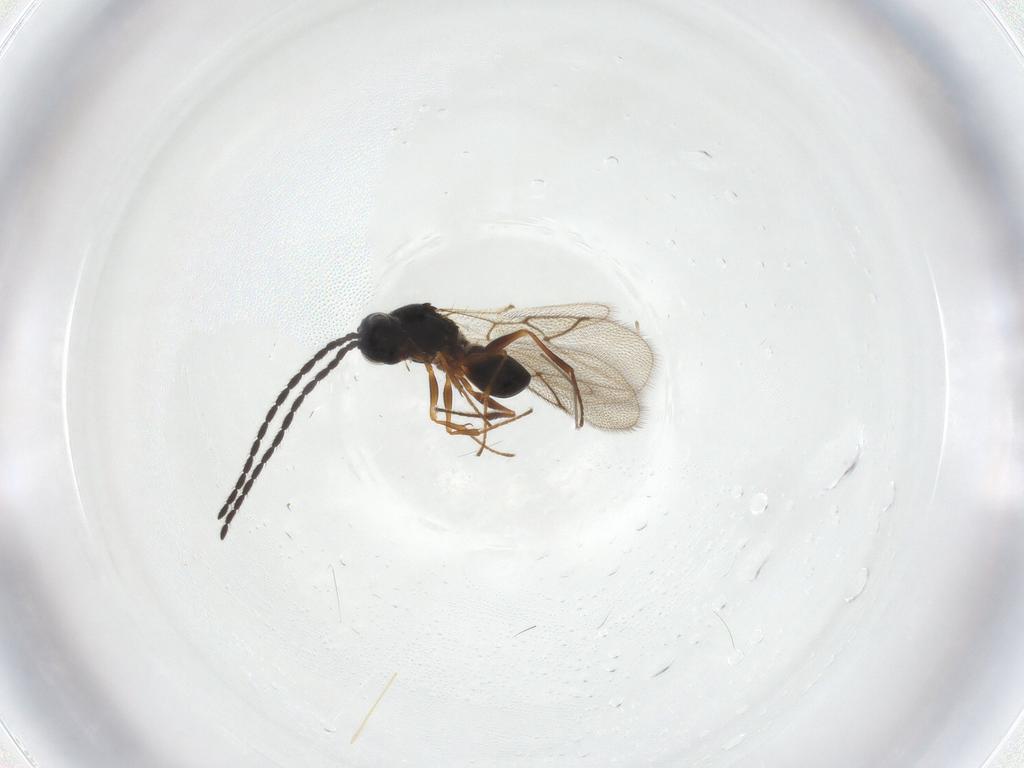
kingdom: Animalia
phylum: Arthropoda
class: Insecta
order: Hymenoptera
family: Figitidae
